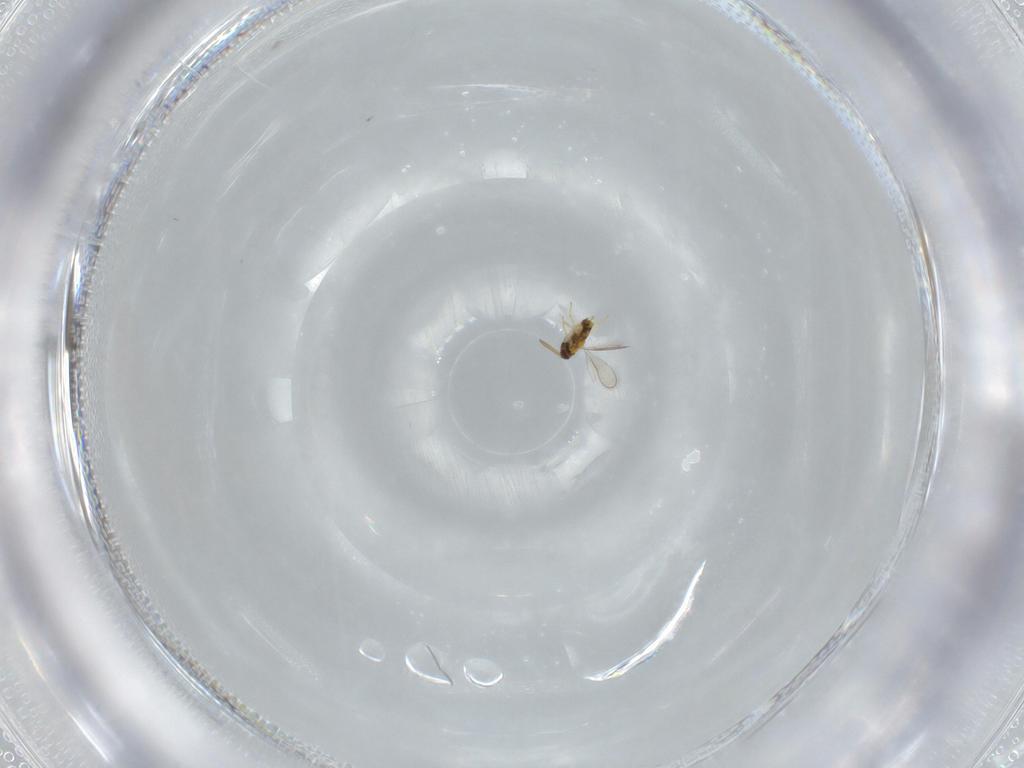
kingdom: Animalia
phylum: Arthropoda
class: Insecta
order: Hymenoptera
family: Aphelinidae
